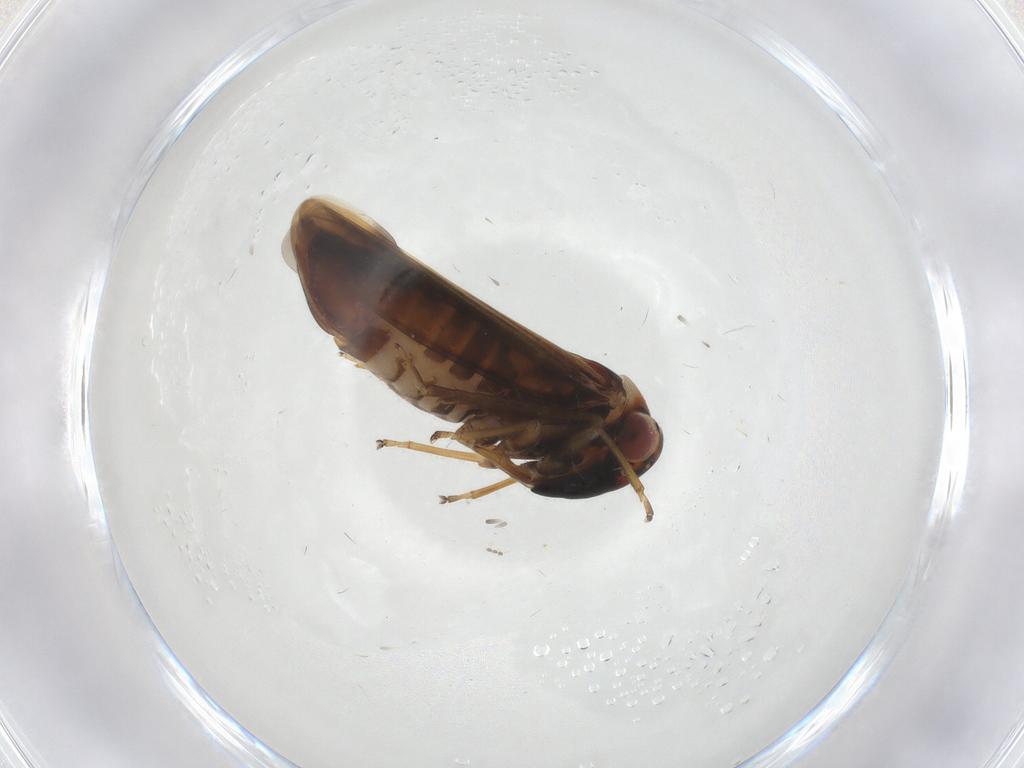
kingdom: Animalia
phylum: Arthropoda
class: Insecta
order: Hemiptera
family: Cicadellidae
